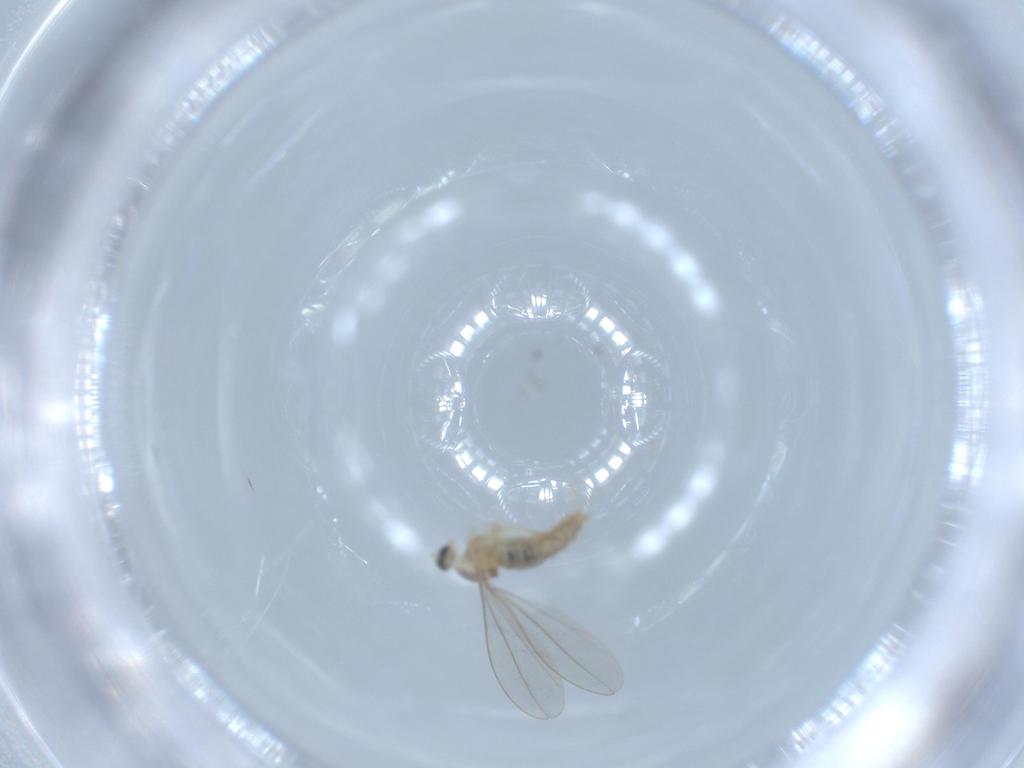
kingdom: Animalia
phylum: Arthropoda
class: Insecta
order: Diptera
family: Cecidomyiidae
